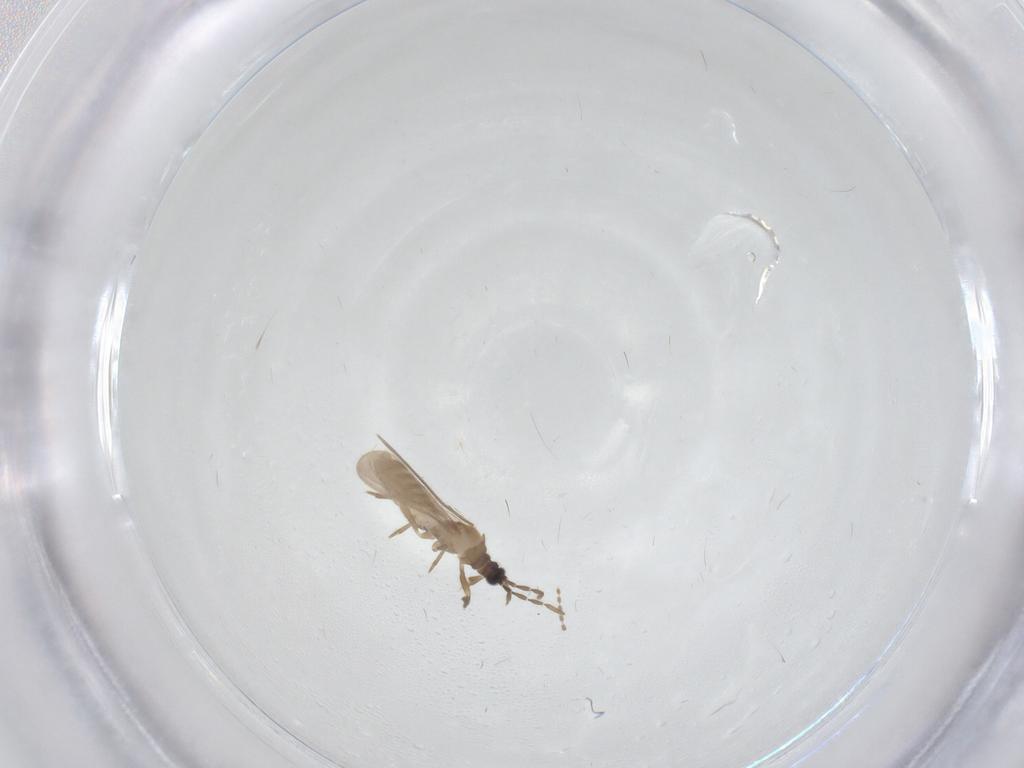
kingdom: Animalia
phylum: Arthropoda
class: Insecta
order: Hemiptera
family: Enicocephalidae
